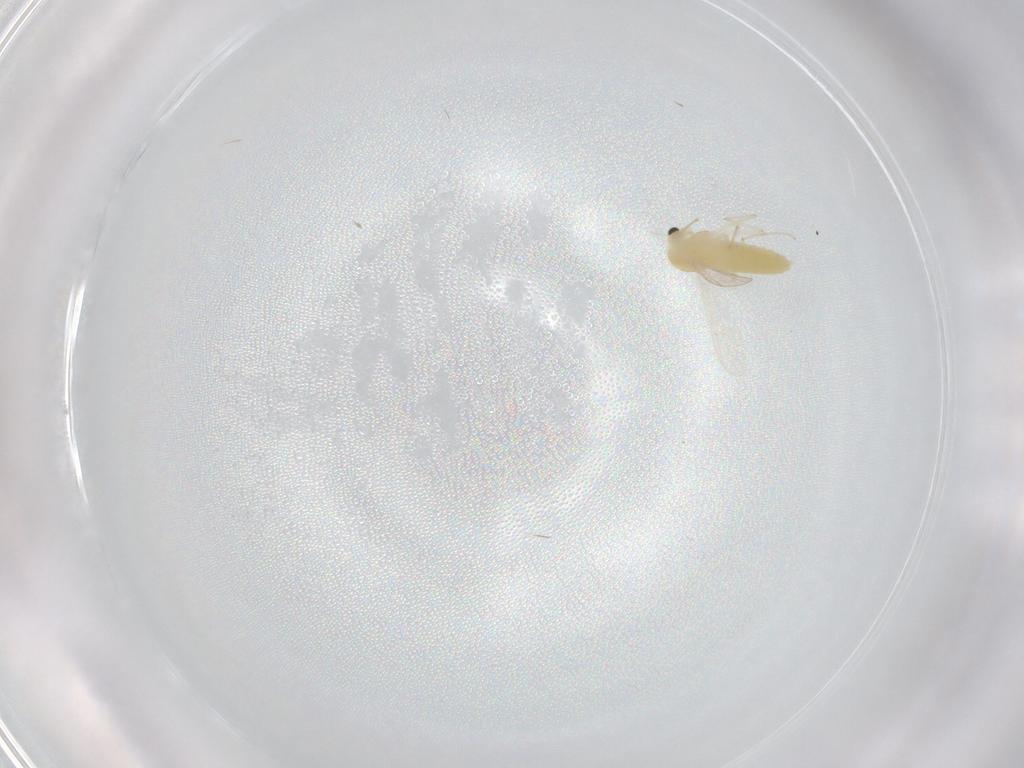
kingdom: Animalia
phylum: Arthropoda
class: Insecta
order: Diptera
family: Chironomidae
